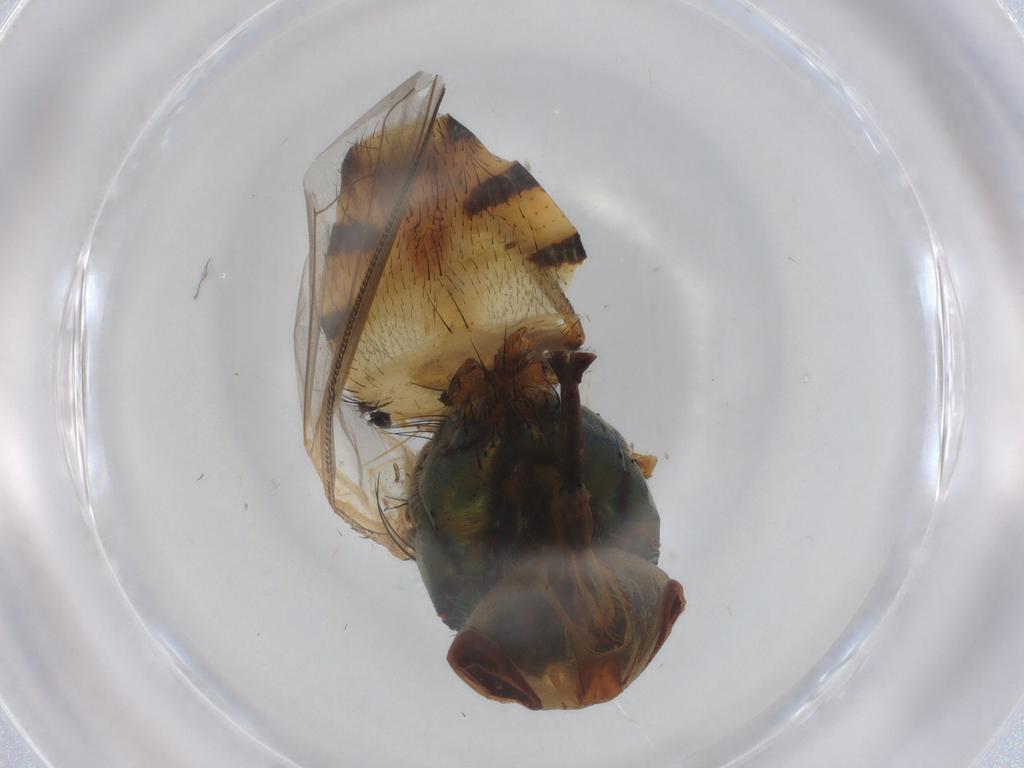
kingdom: Animalia
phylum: Arthropoda
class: Insecta
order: Diptera
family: Calliphoridae
